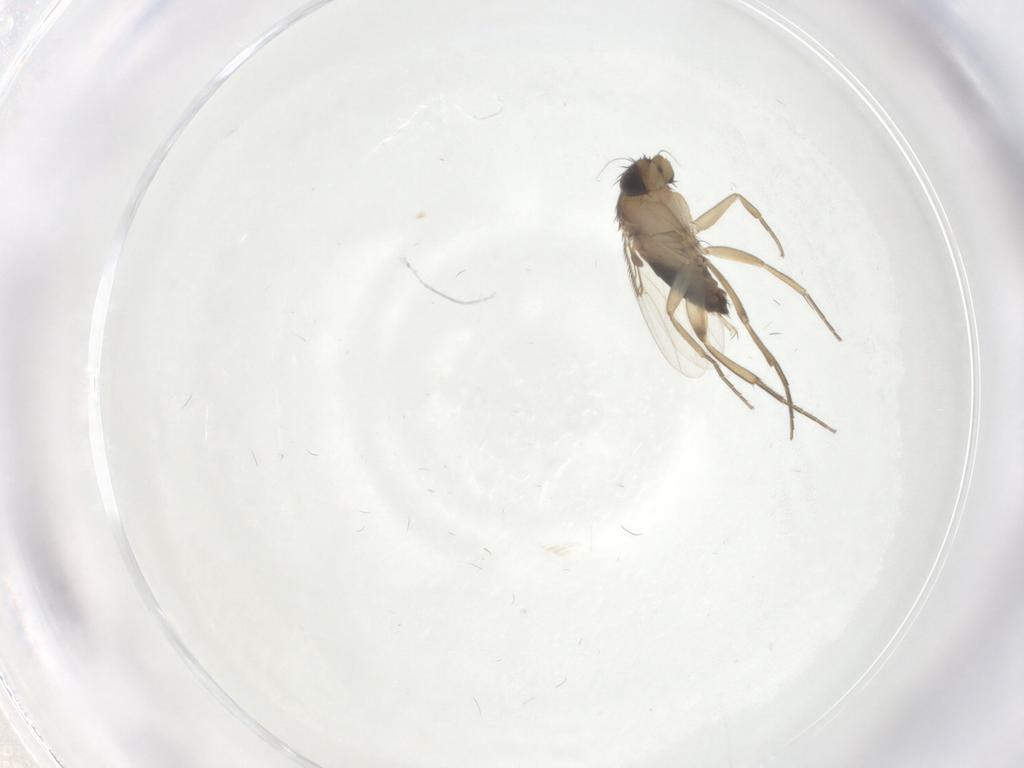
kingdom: Animalia
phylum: Arthropoda
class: Insecta
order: Diptera
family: Phoridae
